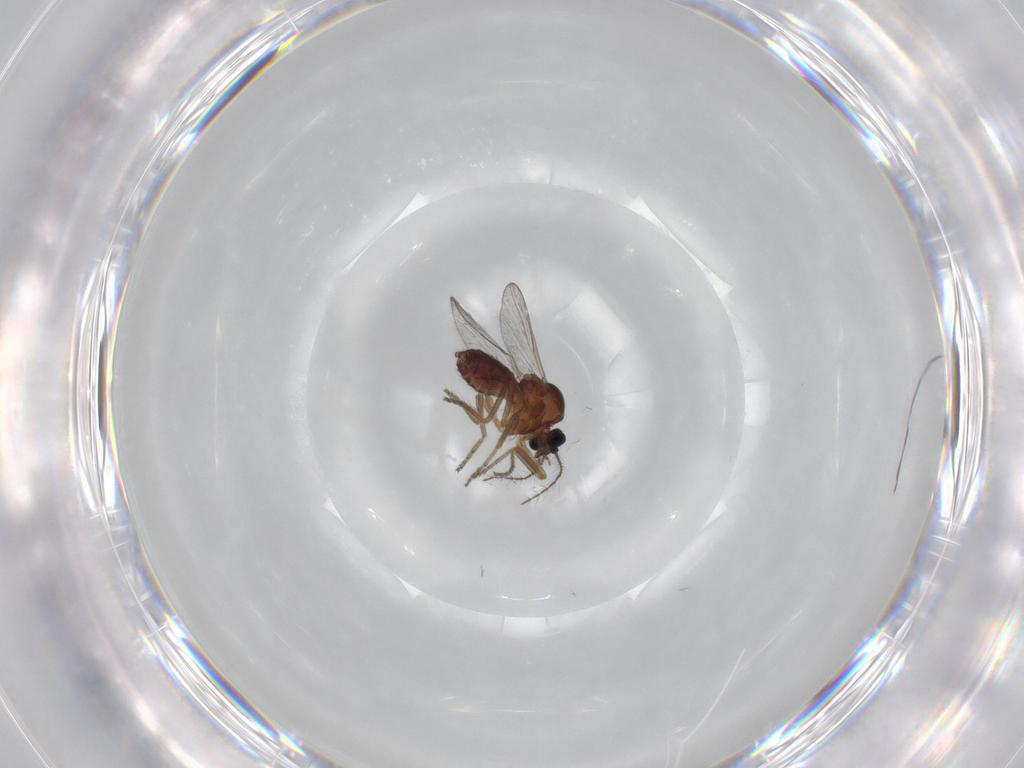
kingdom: Animalia
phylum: Arthropoda
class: Insecta
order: Diptera
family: Ceratopogonidae
